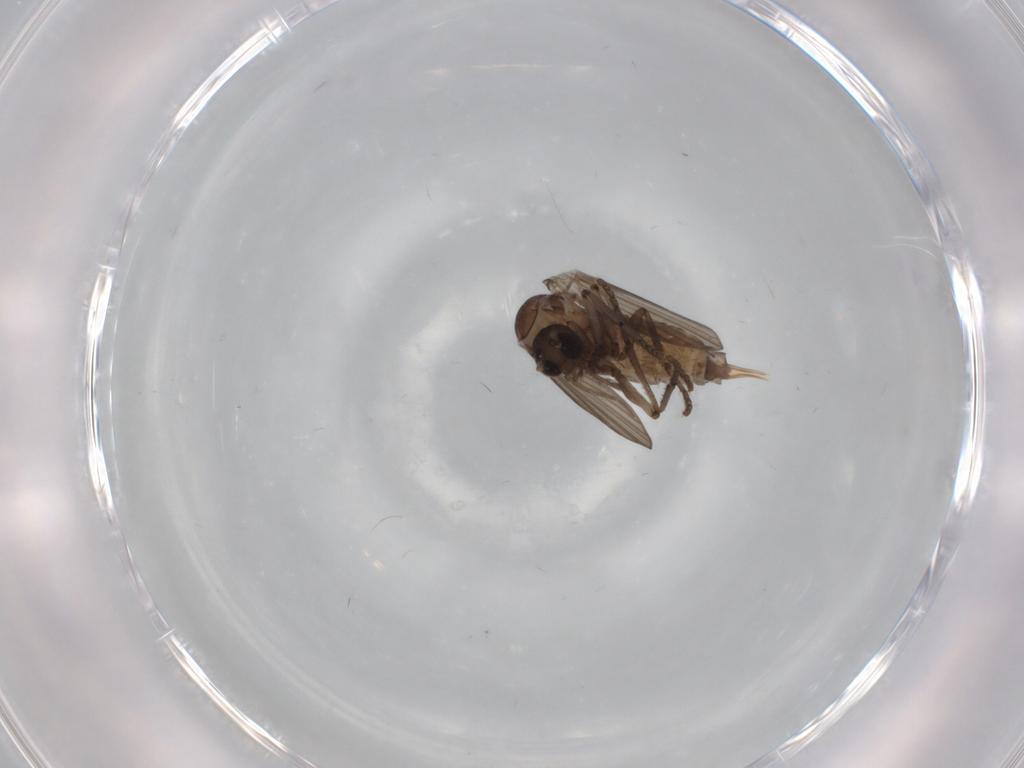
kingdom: Animalia
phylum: Arthropoda
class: Insecta
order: Diptera
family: Psychodidae
